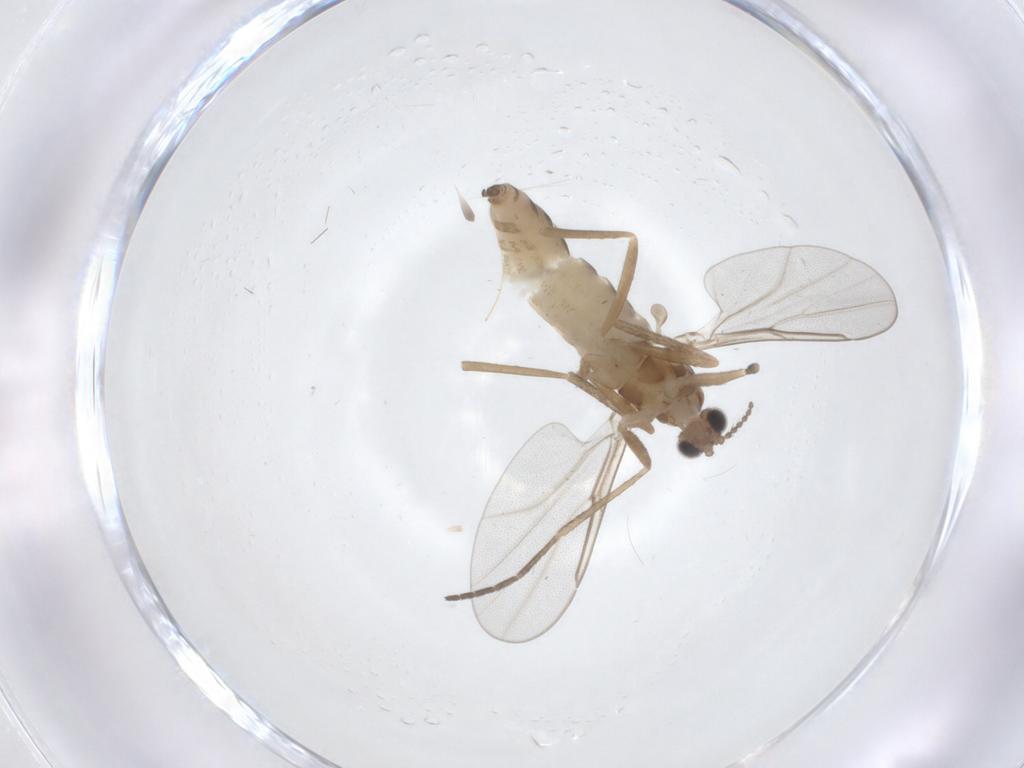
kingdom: Animalia
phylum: Arthropoda
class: Insecta
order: Diptera
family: Cecidomyiidae
